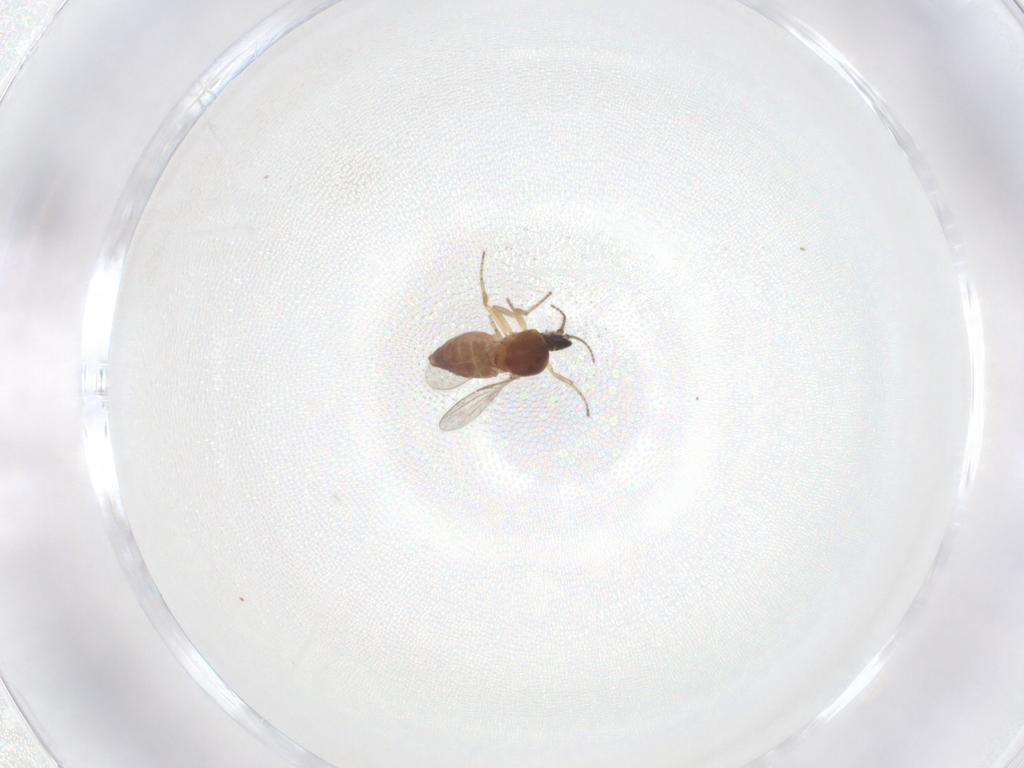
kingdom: Animalia
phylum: Arthropoda
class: Insecta
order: Diptera
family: Ceratopogonidae
